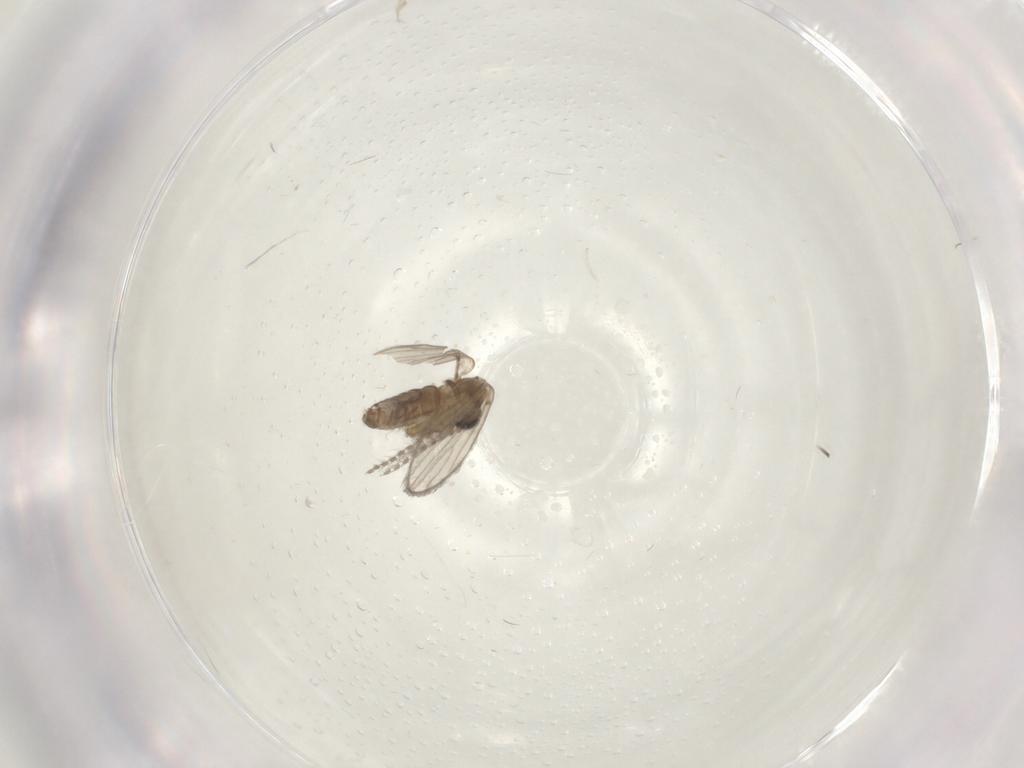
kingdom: Animalia
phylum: Arthropoda
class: Insecta
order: Diptera
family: Psychodidae
